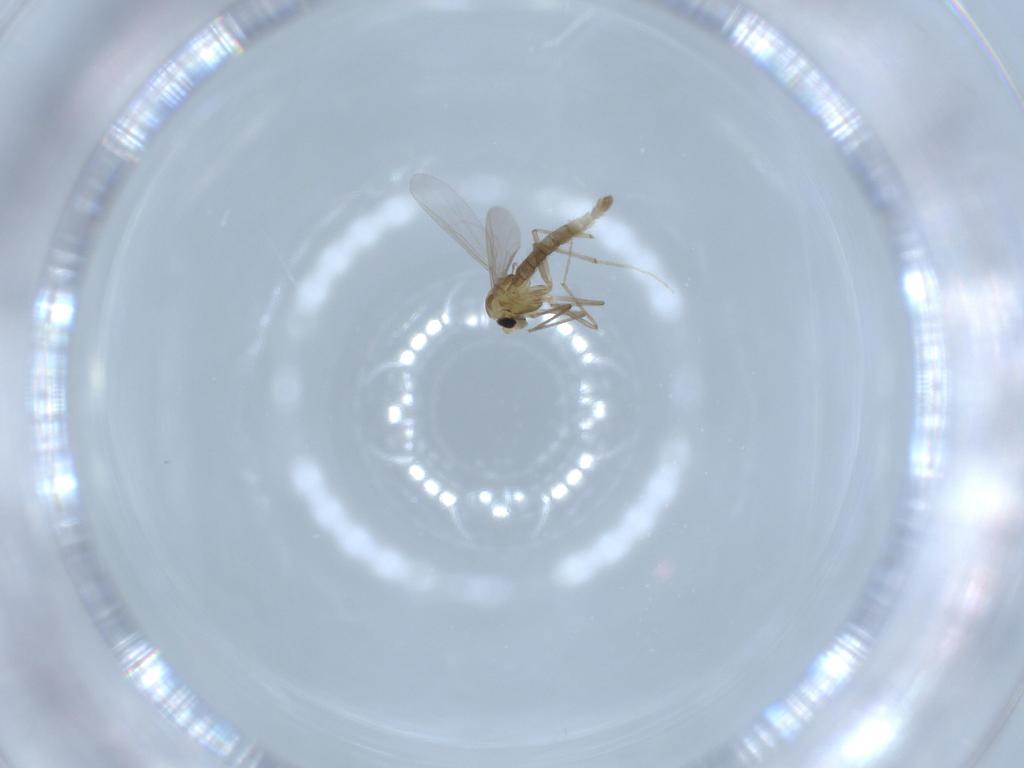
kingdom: Animalia
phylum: Arthropoda
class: Insecta
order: Diptera
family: Chironomidae
